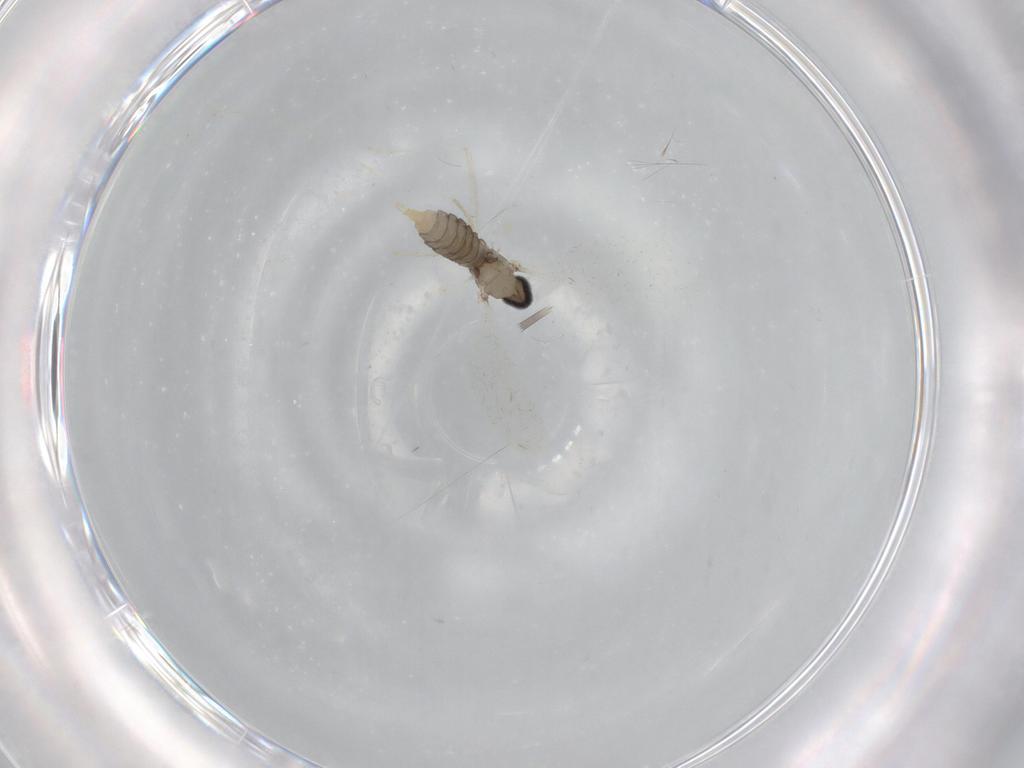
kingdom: Animalia
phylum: Arthropoda
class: Insecta
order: Diptera
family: Cecidomyiidae
